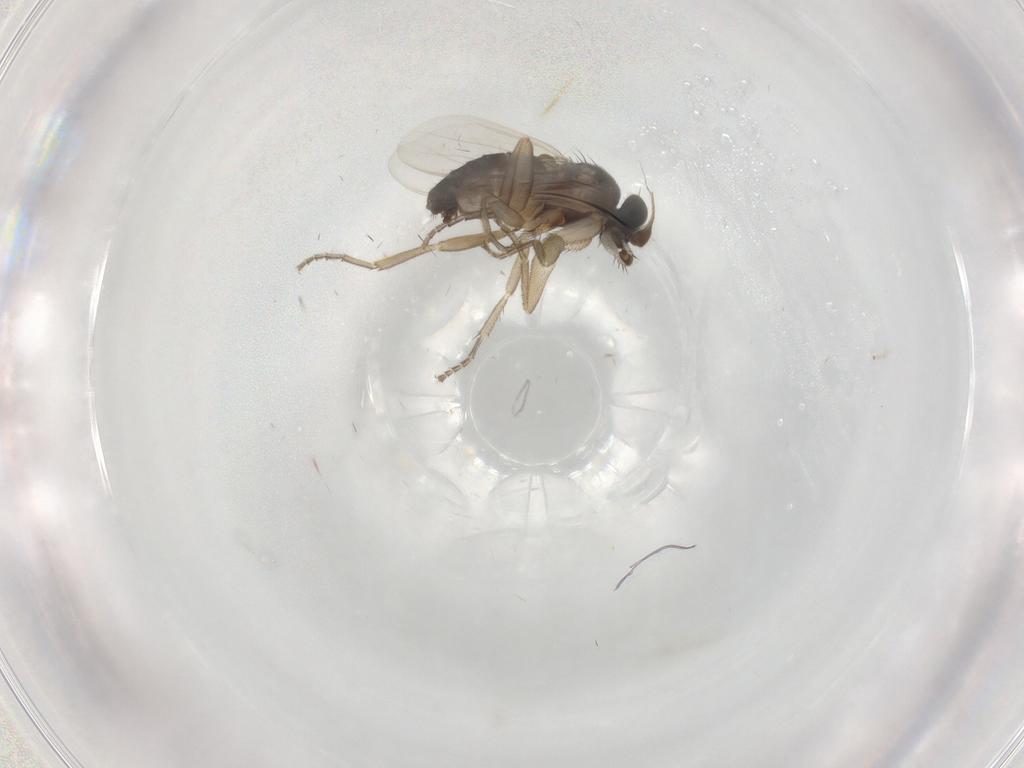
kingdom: Animalia
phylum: Arthropoda
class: Insecta
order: Diptera
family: Phoridae
